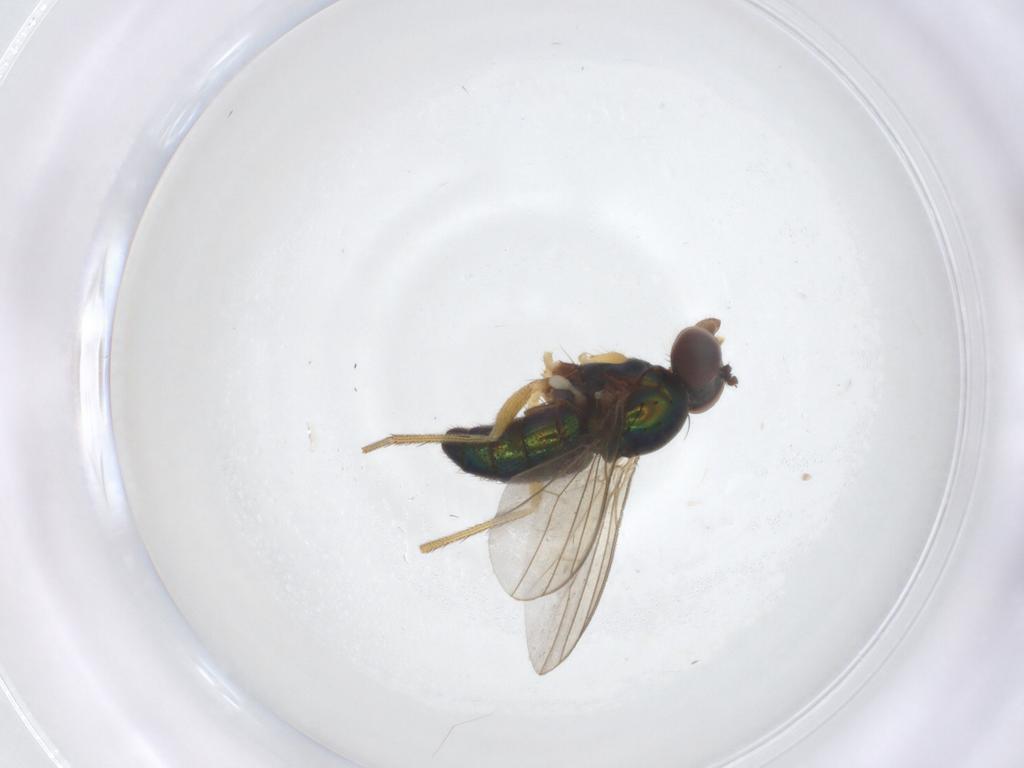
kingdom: Animalia
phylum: Arthropoda
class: Insecta
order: Diptera
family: Dolichopodidae
